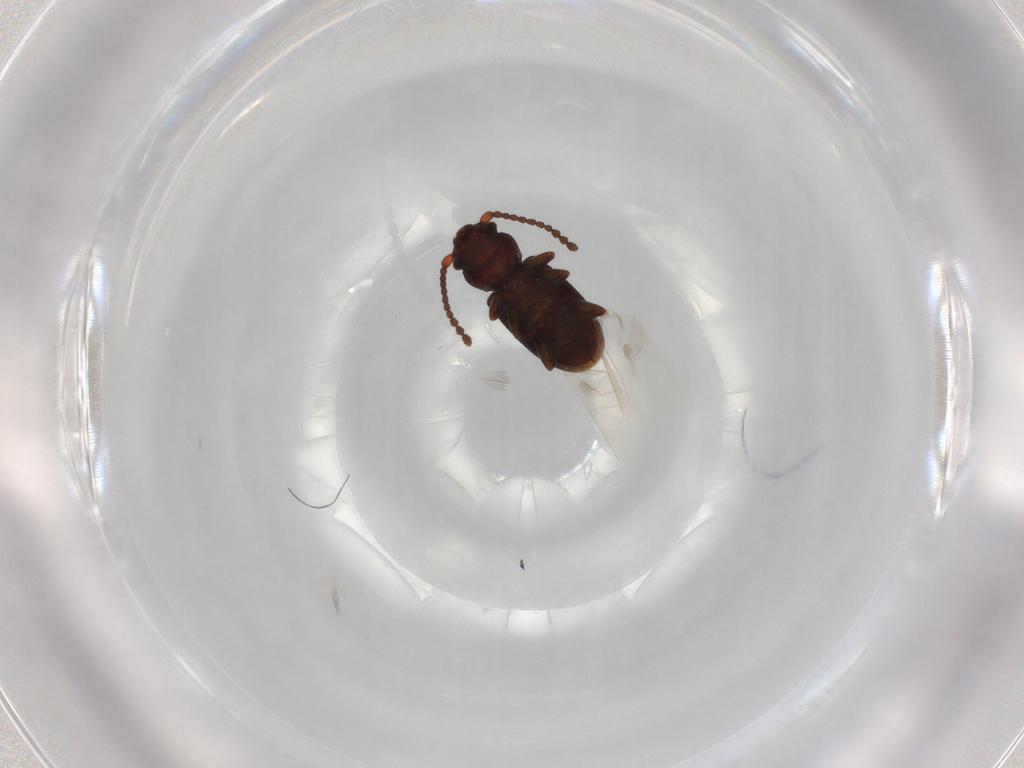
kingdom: Animalia
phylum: Arthropoda
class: Insecta
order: Coleoptera
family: Laemophloeidae
